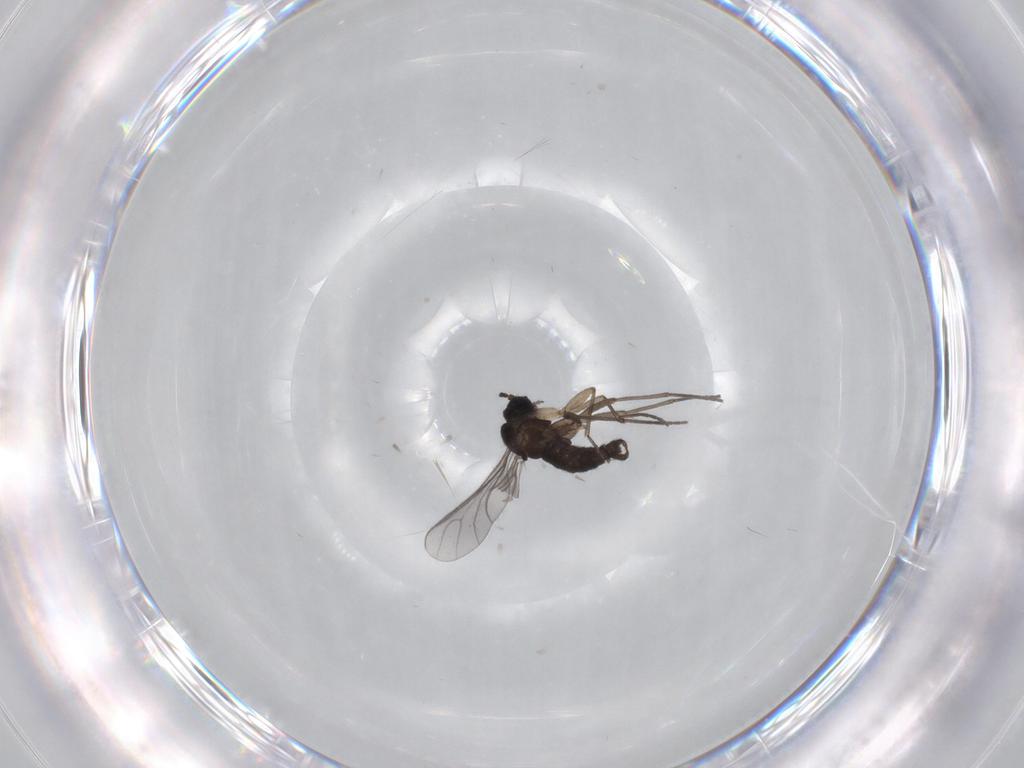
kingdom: Animalia
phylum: Arthropoda
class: Insecta
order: Diptera
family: Sciaridae
